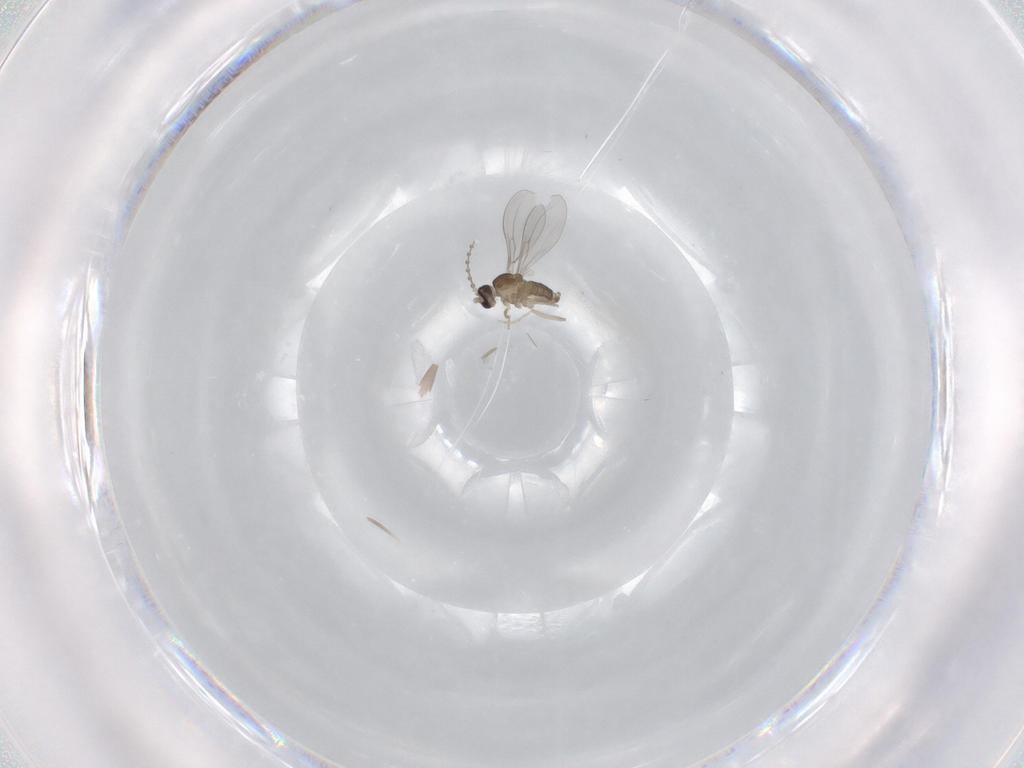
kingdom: Animalia
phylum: Arthropoda
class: Insecta
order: Diptera
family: Cecidomyiidae
